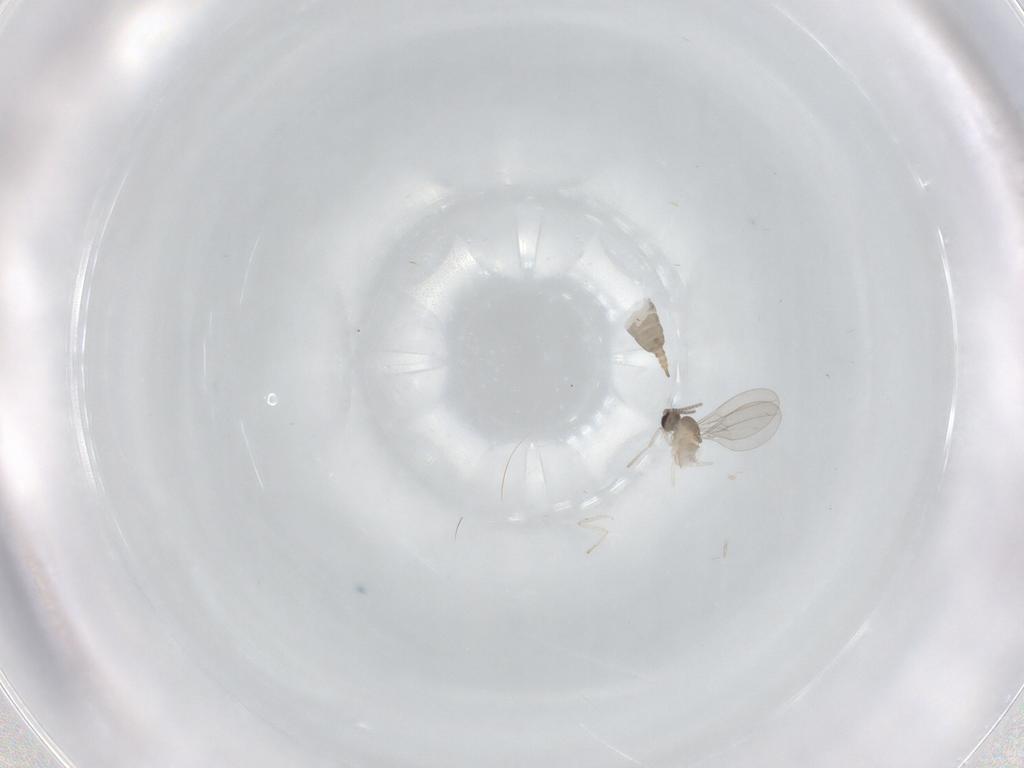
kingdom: Animalia
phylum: Arthropoda
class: Insecta
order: Diptera
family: Cecidomyiidae
